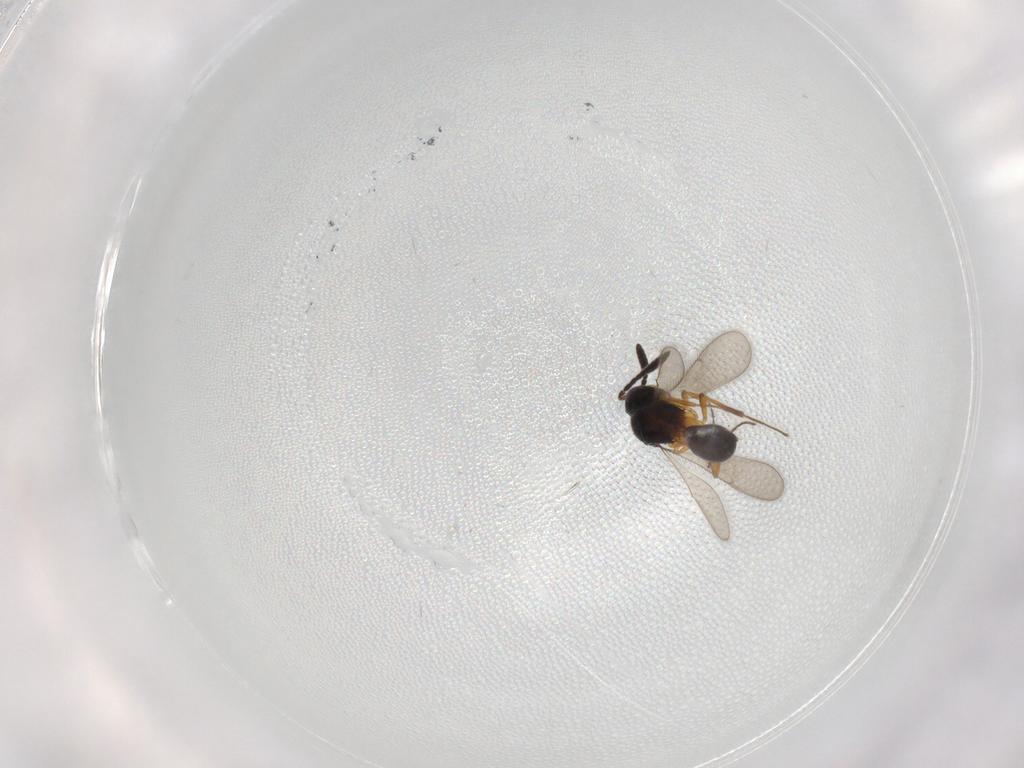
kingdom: Animalia
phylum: Arthropoda
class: Insecta
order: Hymenoptera
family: Scelionidae
